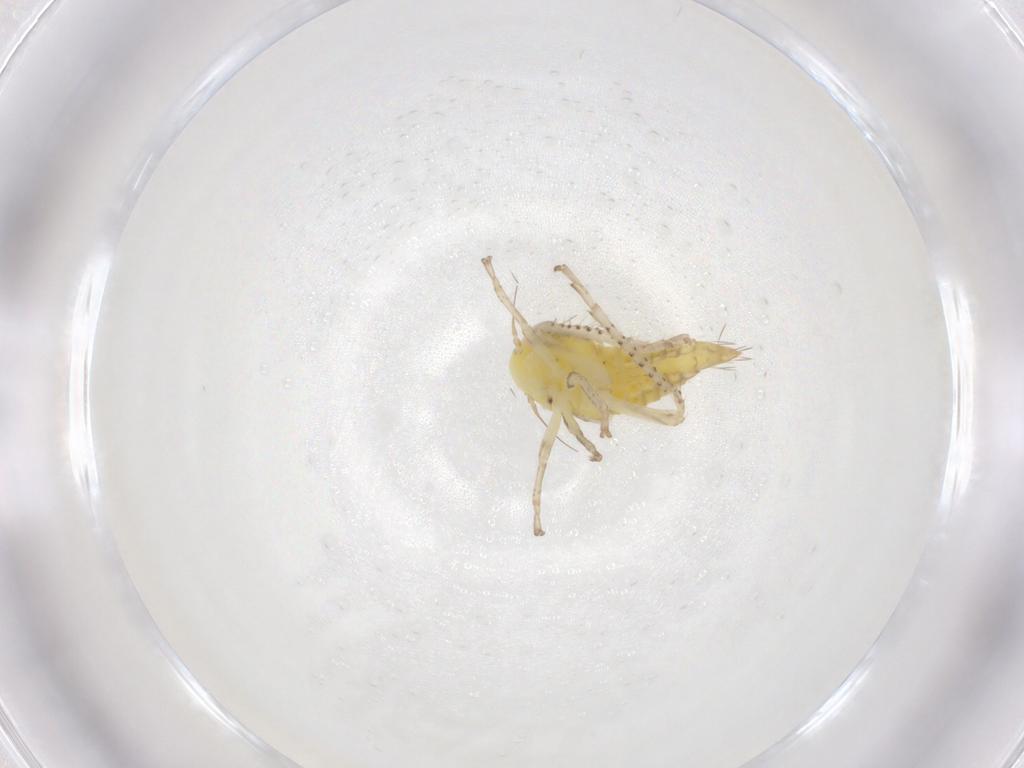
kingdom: Animalia
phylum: Arthropoda
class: Insecta
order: Hemiptera
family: Cicadellidae
